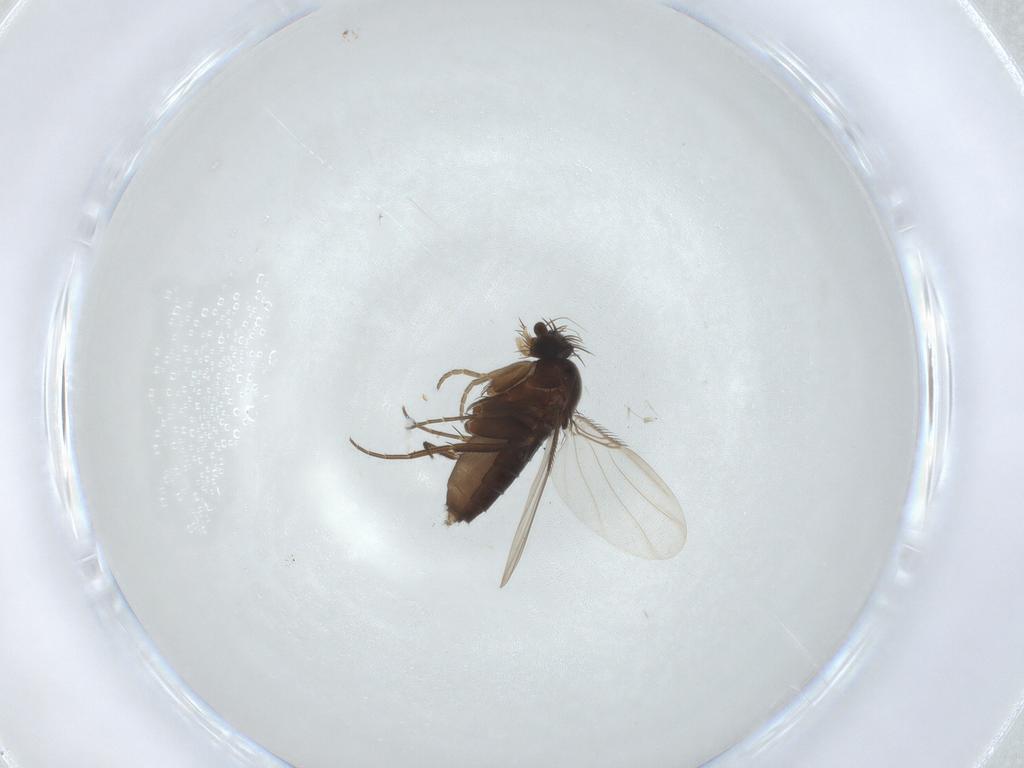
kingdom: Animalia
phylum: Arthropoda
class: Insecta
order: Diptera
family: Phoridae
